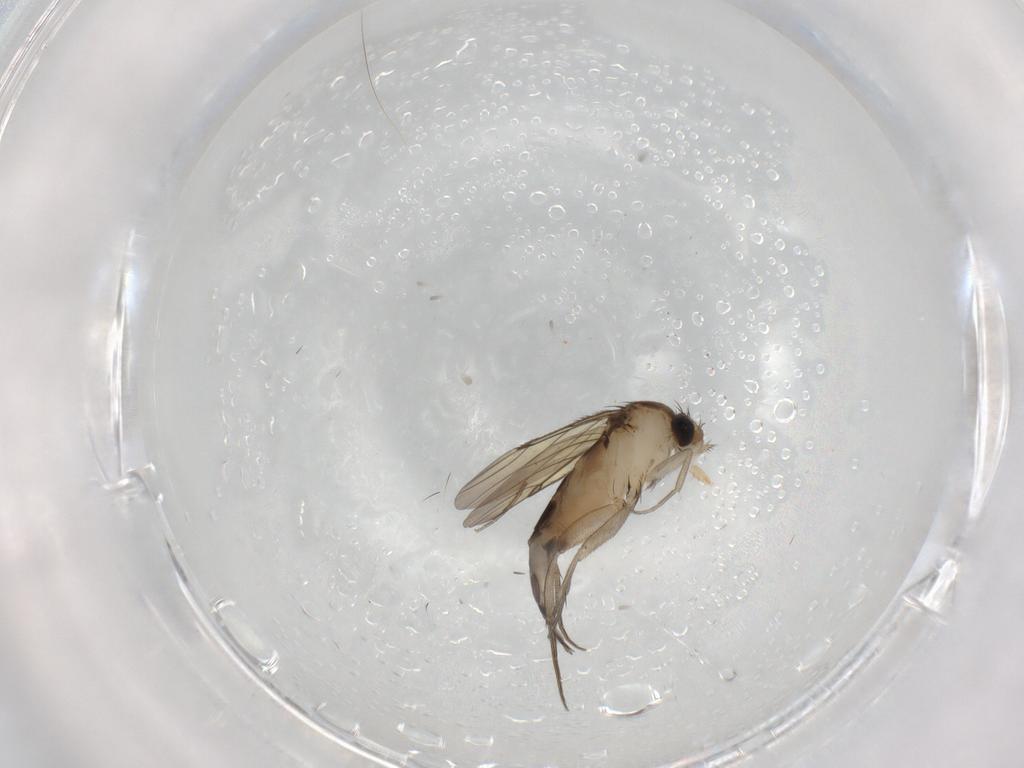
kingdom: Animalia
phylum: Arthropoda
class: Insecta
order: Diptera
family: Phoridae
